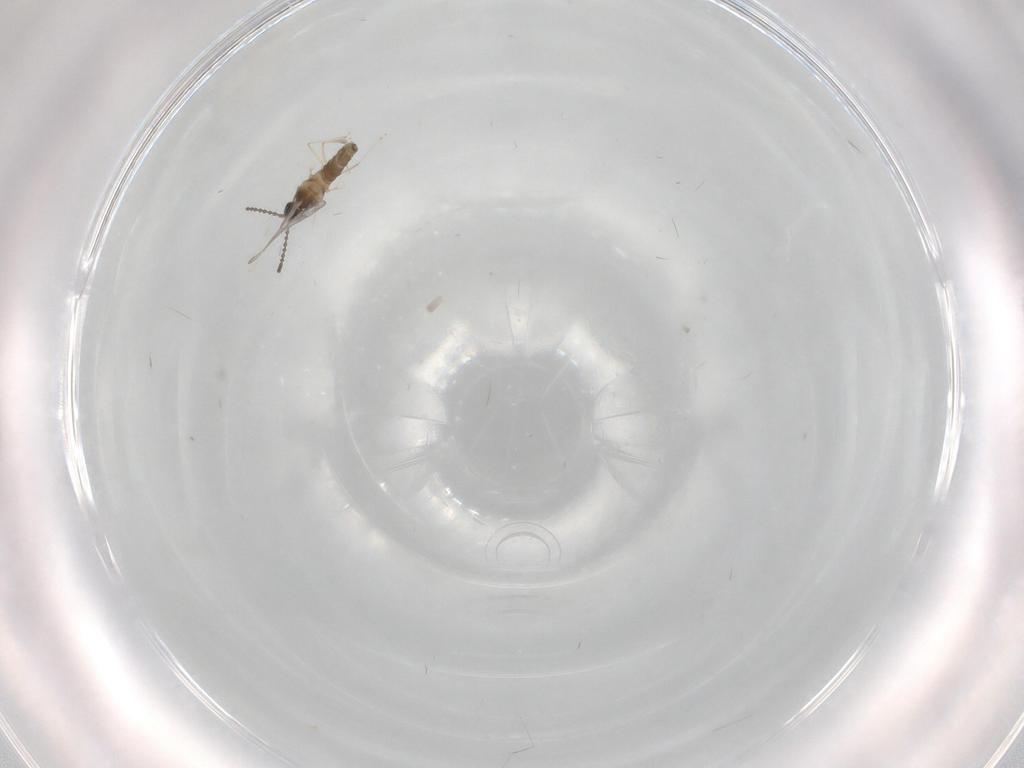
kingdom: Animalia
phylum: Arthropoda
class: Insecta
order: Diptera
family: Cecidomyiidae
